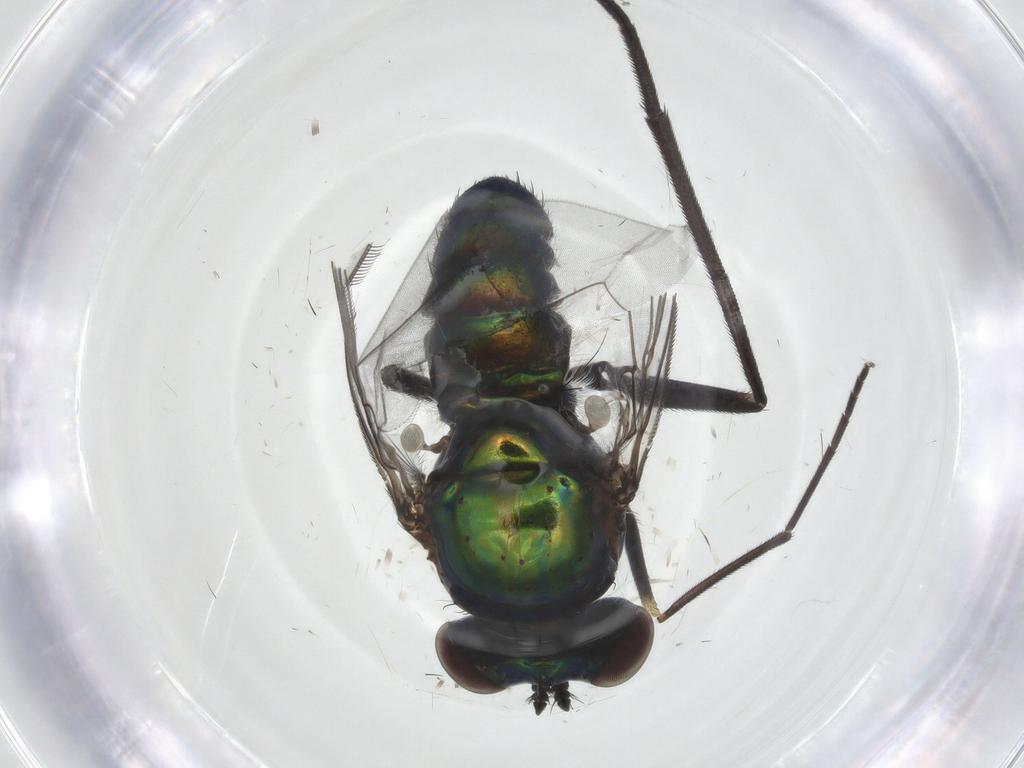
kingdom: Animalia
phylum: Arthropoda
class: Insecta
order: Diptera
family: Dolichopodidae
